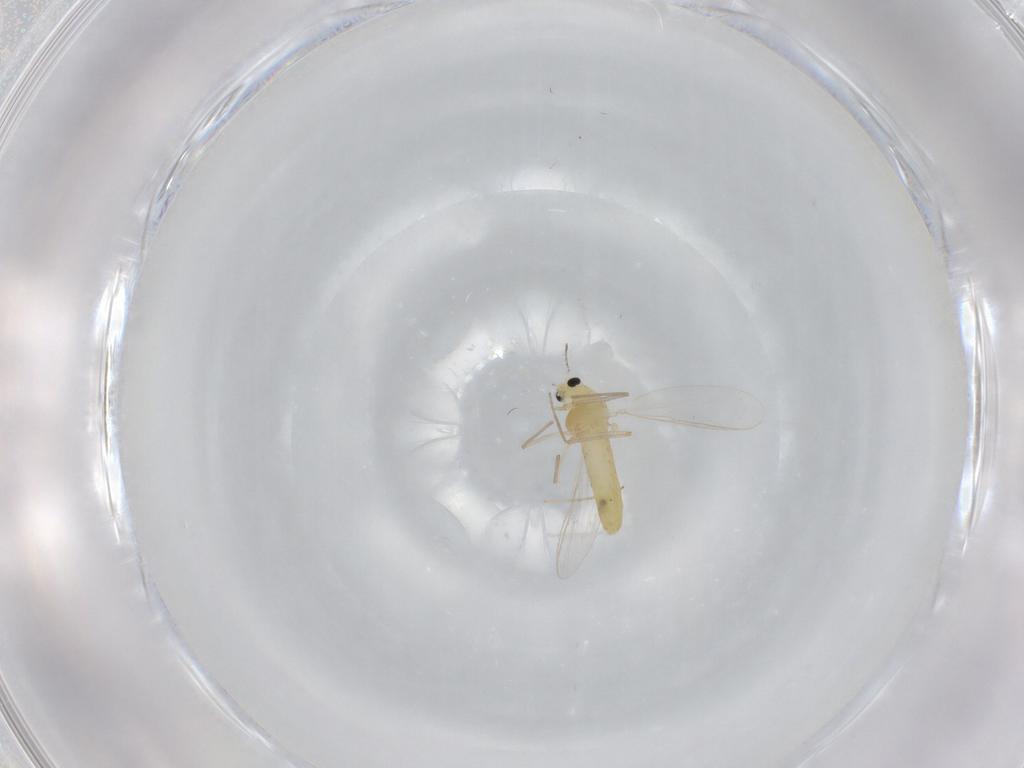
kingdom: Animalia
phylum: Arthropoda
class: Insecta
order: Diptera
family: Chironomidae
